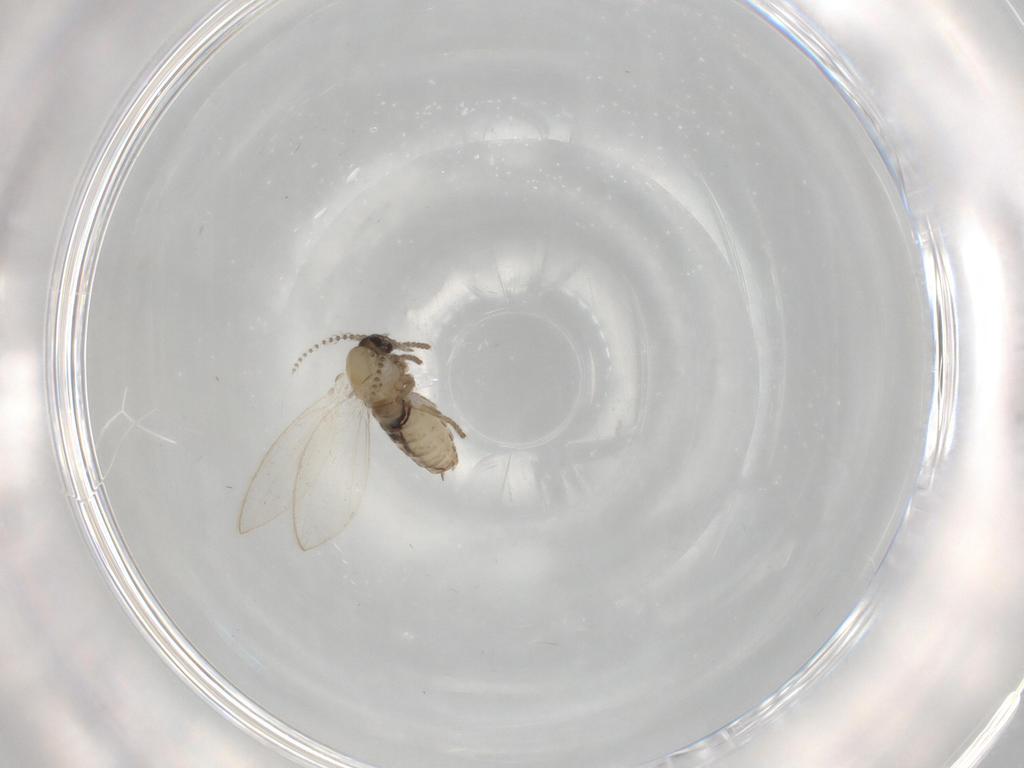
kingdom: Animalia
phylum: Arthropoda
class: Insecta
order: Diptera
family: Psychodidae
